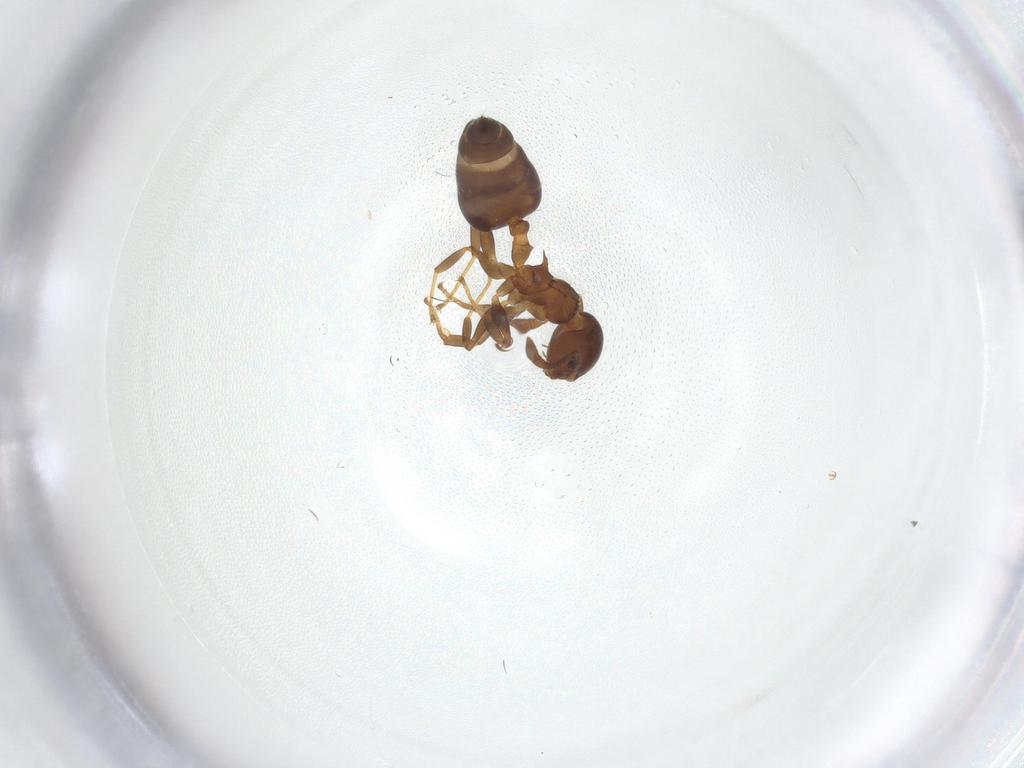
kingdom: Animalia
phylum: Arthropoda
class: Insecta
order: Hymenoptera
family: Formicidae
